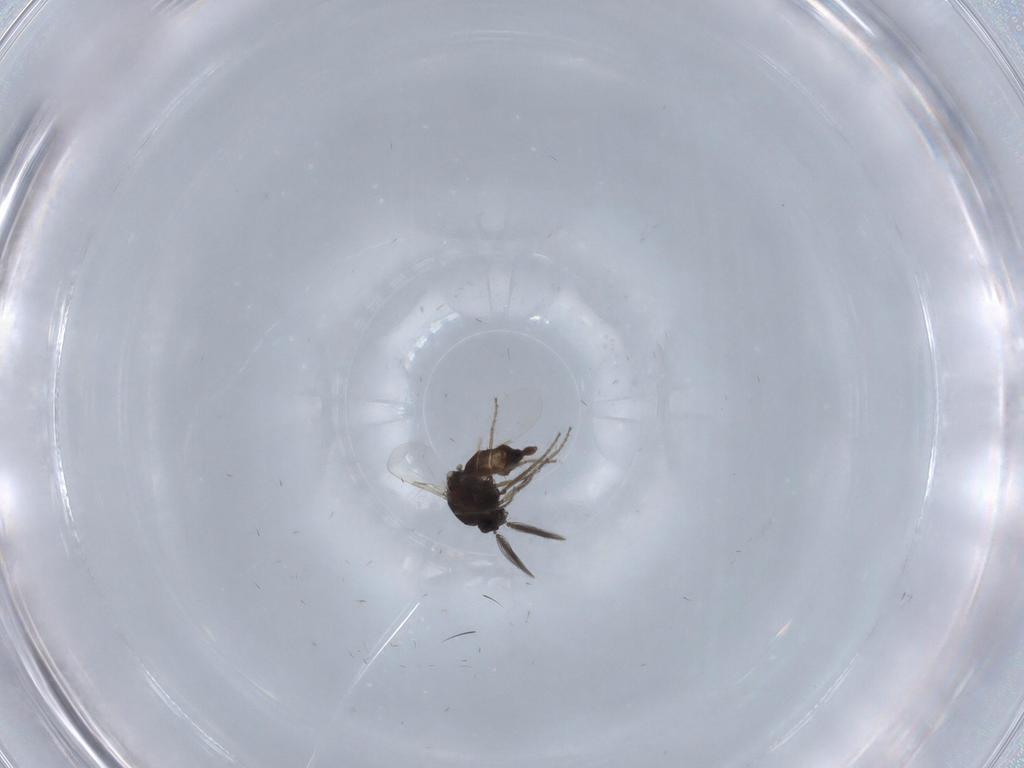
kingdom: Animalia
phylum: Arthropoda
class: Insecta
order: Diptera
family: Ceratopogonidae
